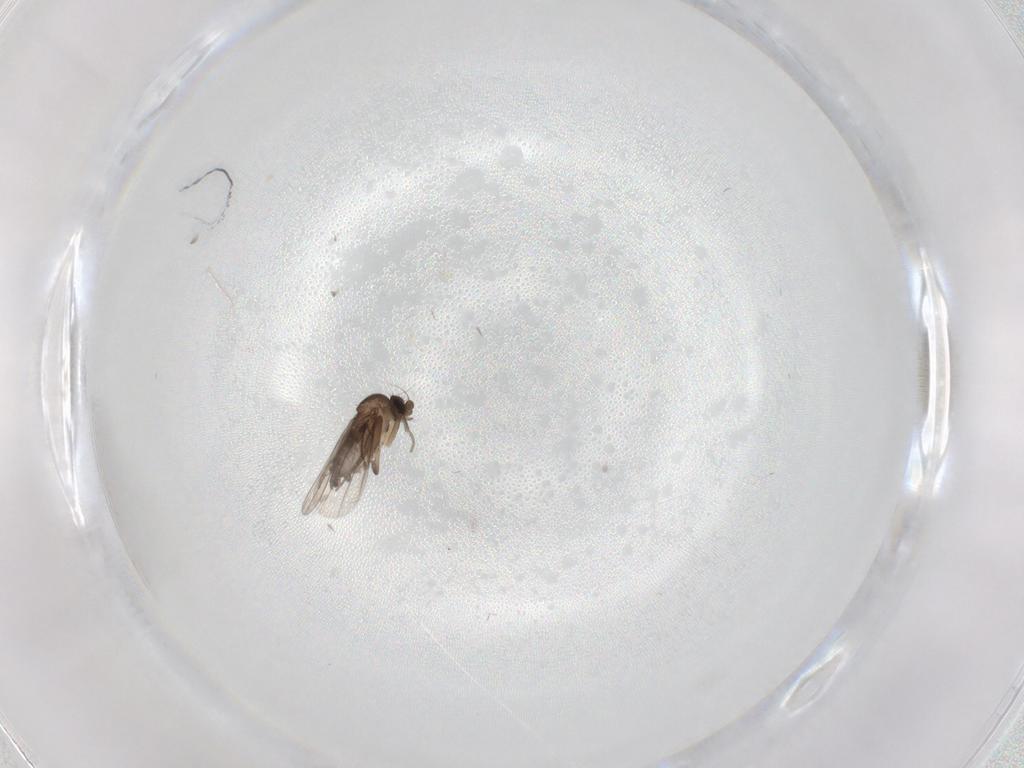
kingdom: Animalia
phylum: Arthropoda
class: Insecta
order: Diptera
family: Phoridae
